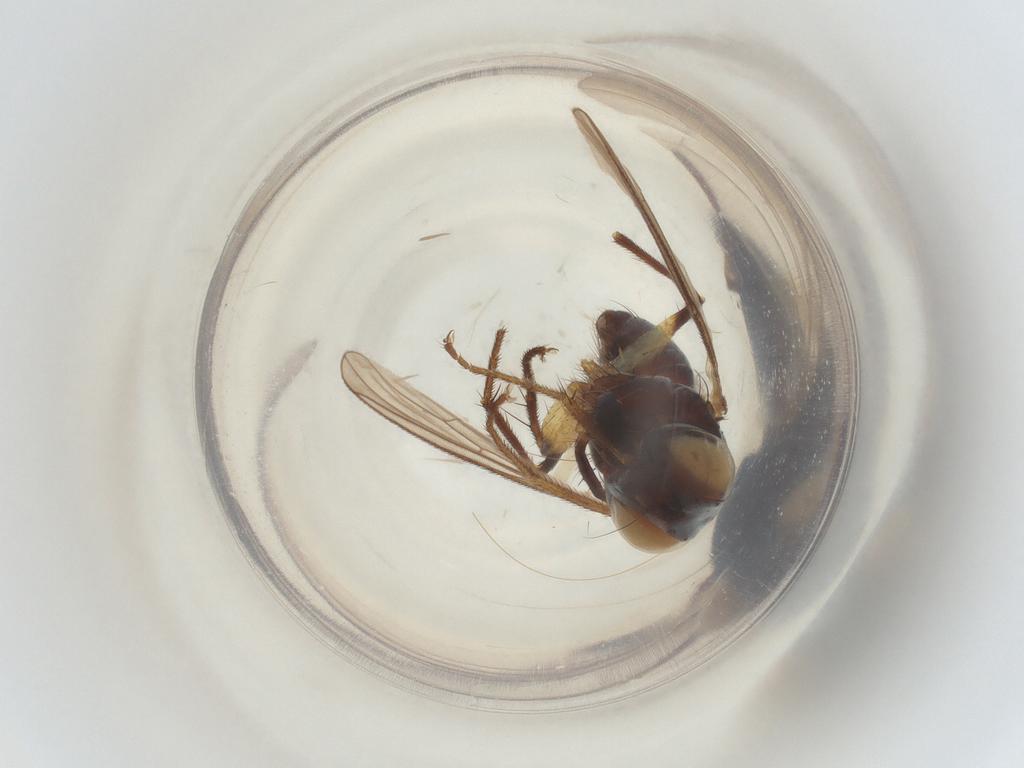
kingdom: Animalia
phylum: Arthropoda
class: Insecta
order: Diptera
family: Muscidae
